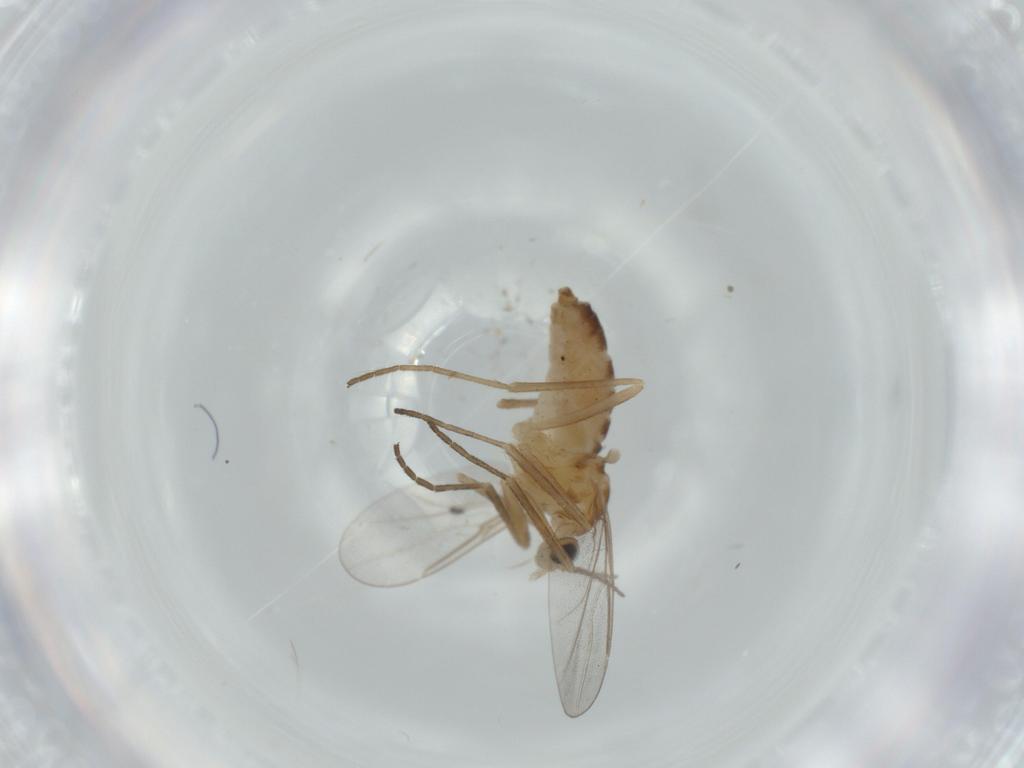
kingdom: Animalia
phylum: Arthropoda
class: Insecta
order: Diptera
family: Cecidomyiidae
